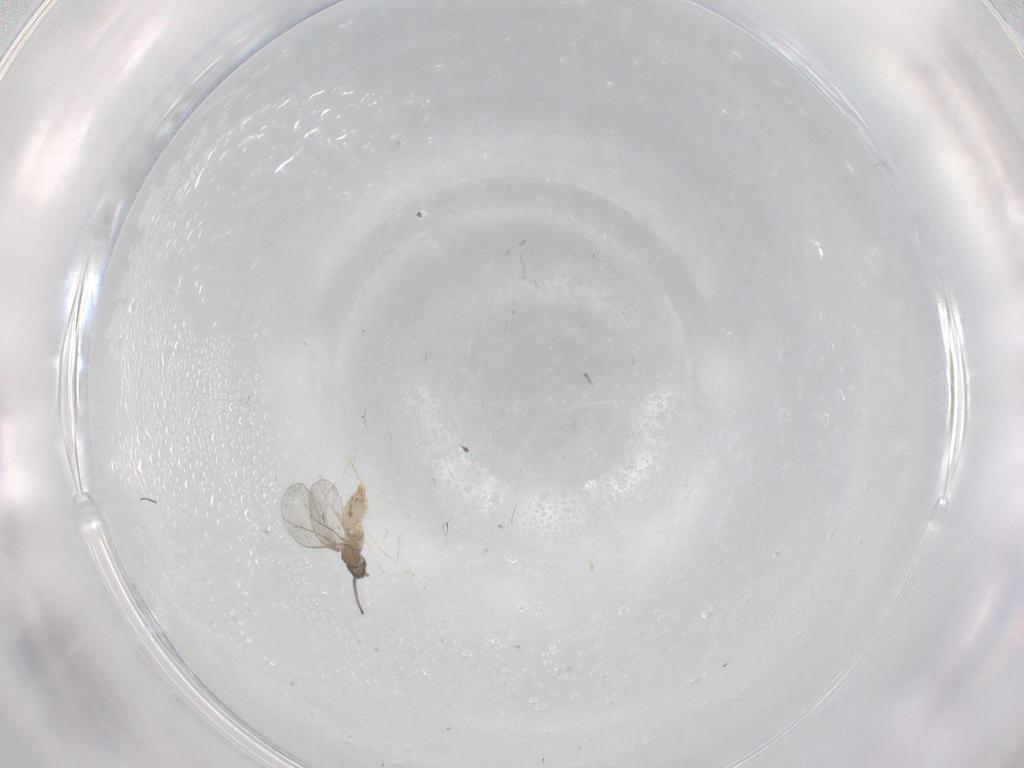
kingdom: Animalia
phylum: Arthropoda
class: Insecta
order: Diptera
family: Cecidomyiidae
